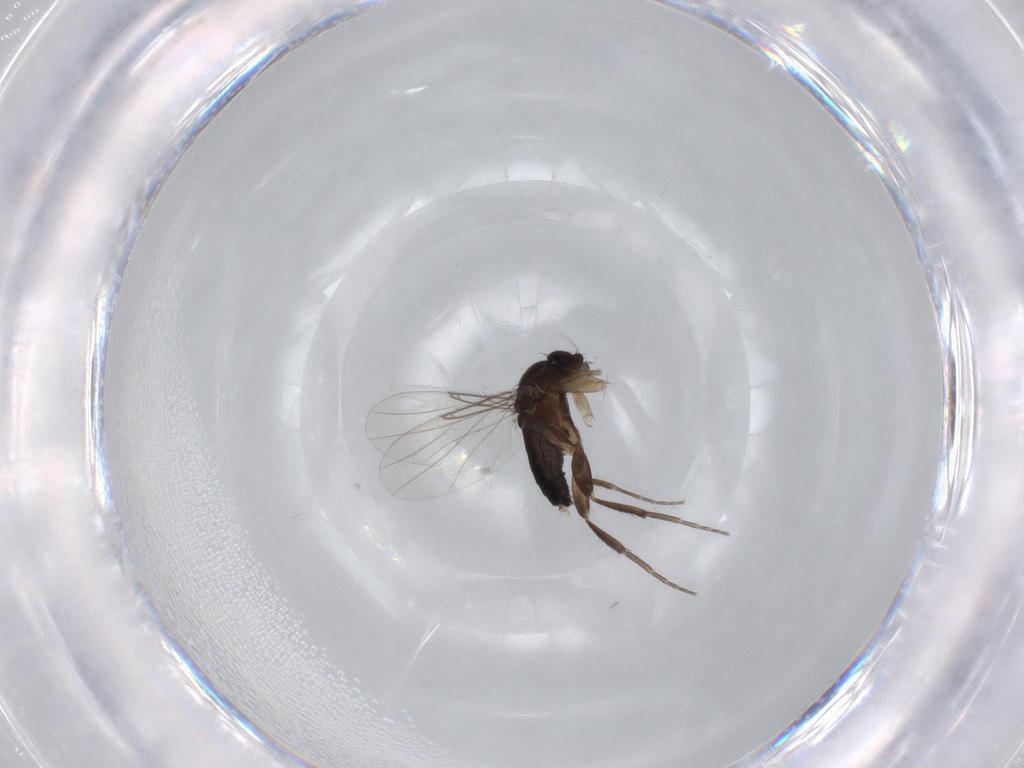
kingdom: Animalia
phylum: Arthropoda
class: Insecta
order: Diptera
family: Phoridae
